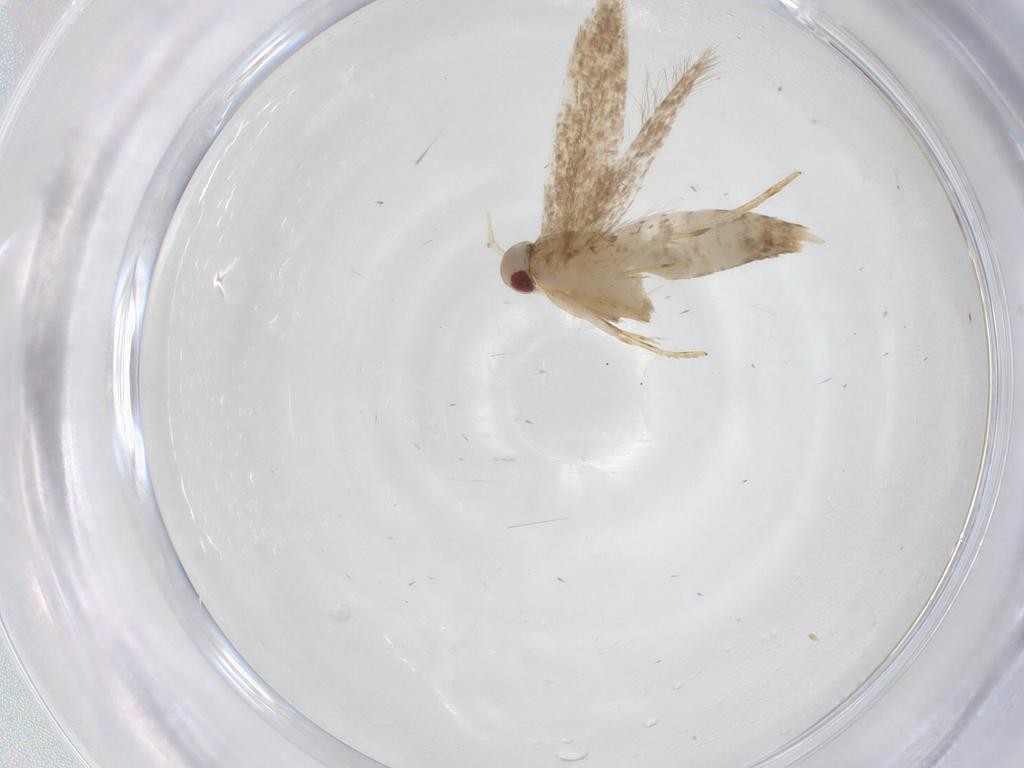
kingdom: Animalia
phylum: Arthropoda
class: Insecta
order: Lepidoptera
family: Cosmopterigidae
